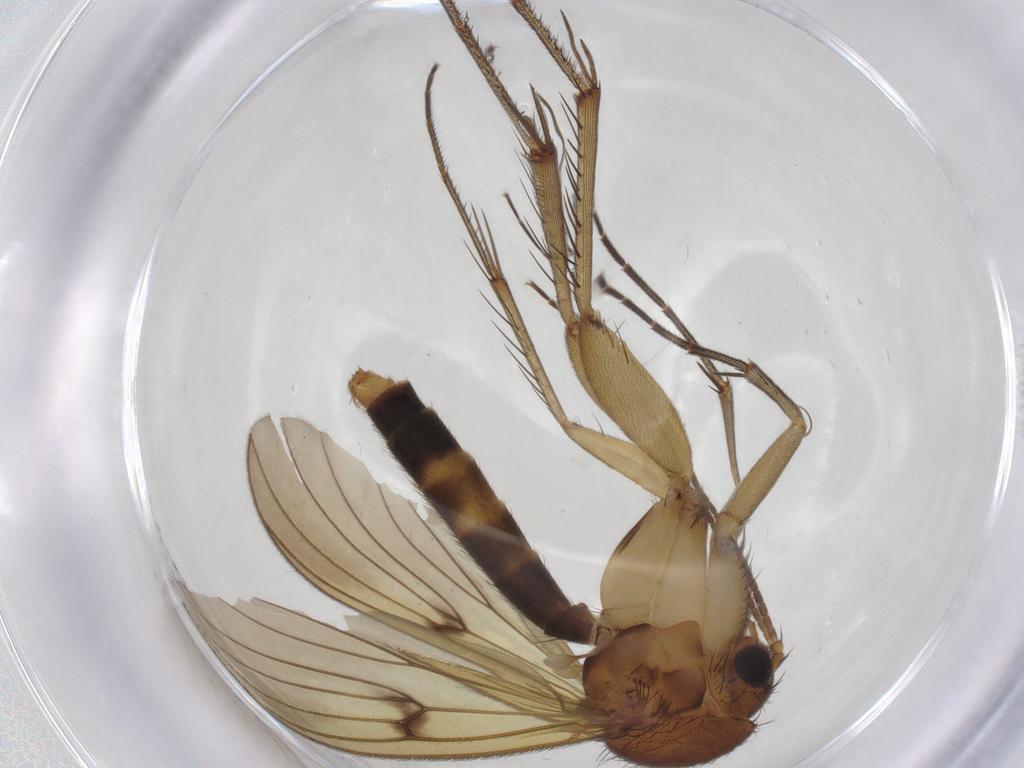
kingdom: Animalia
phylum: Arthropoda
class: Insecta
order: Diptera
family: Mycetophilidae
